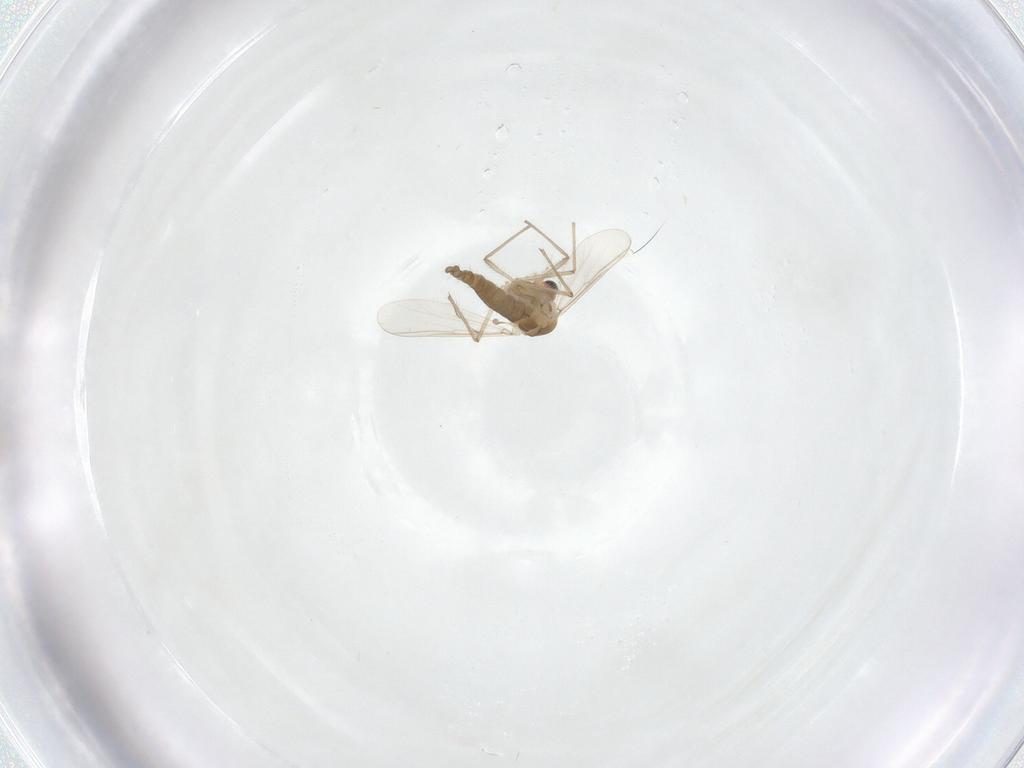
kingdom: Animalia
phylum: Arthropoda
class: Insecta
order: Diptera
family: Chironomidae
